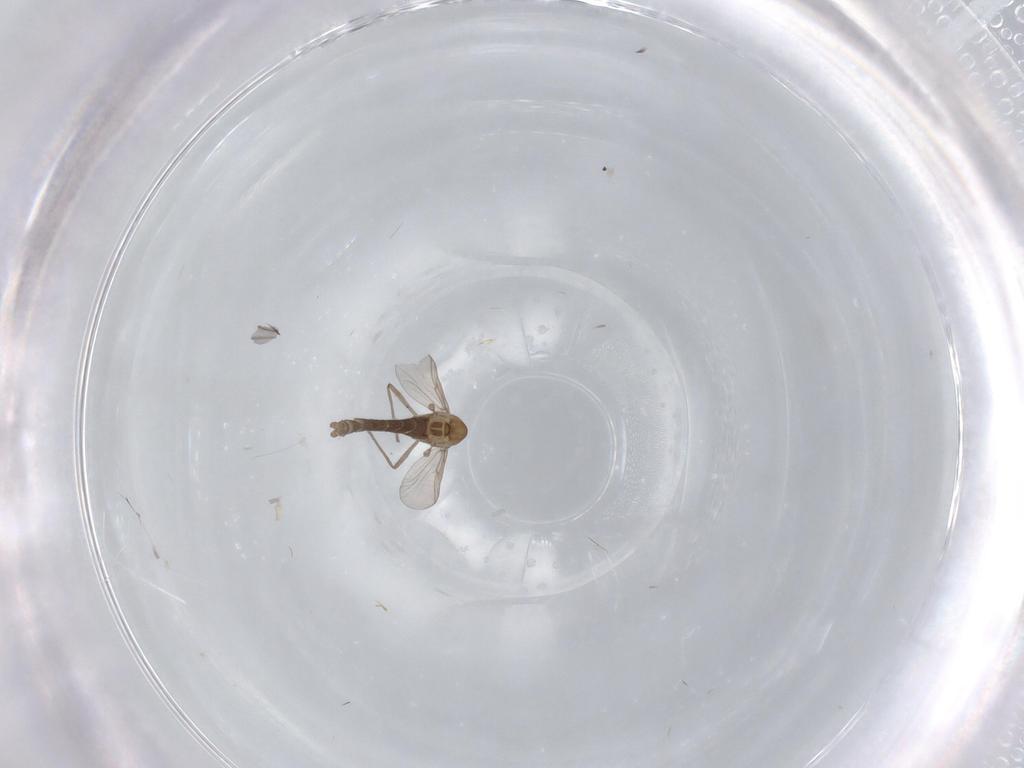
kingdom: Animalia
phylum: Arthropoda
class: Insecta
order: Diptera
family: Chironomidae
